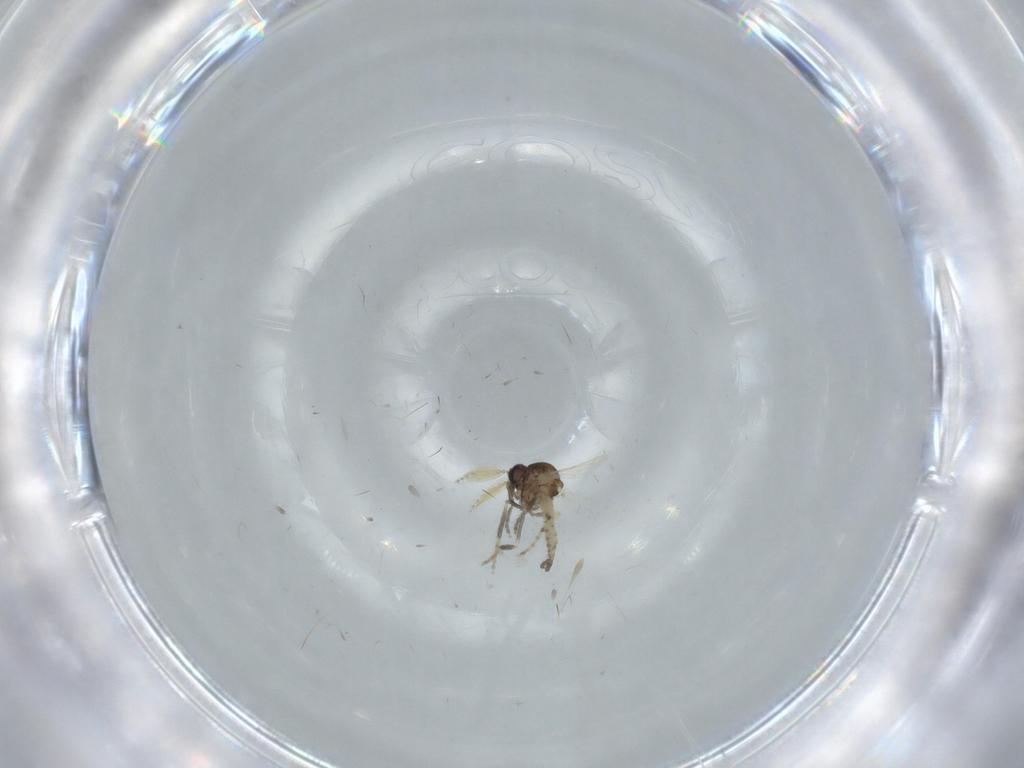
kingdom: Animalia
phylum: Arthropoda
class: Insecta
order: Diptera
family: Ceratopogonidae
